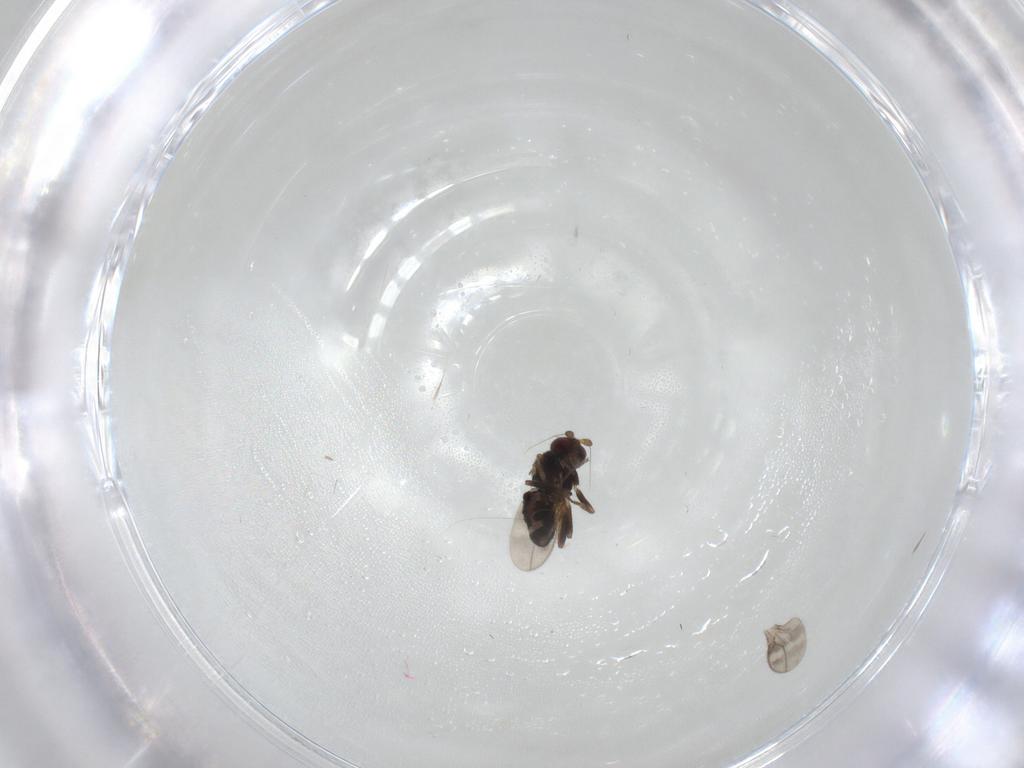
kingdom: Animalia
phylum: Arthropoda
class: Insecta
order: Diptera
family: Sphaeroceridae
